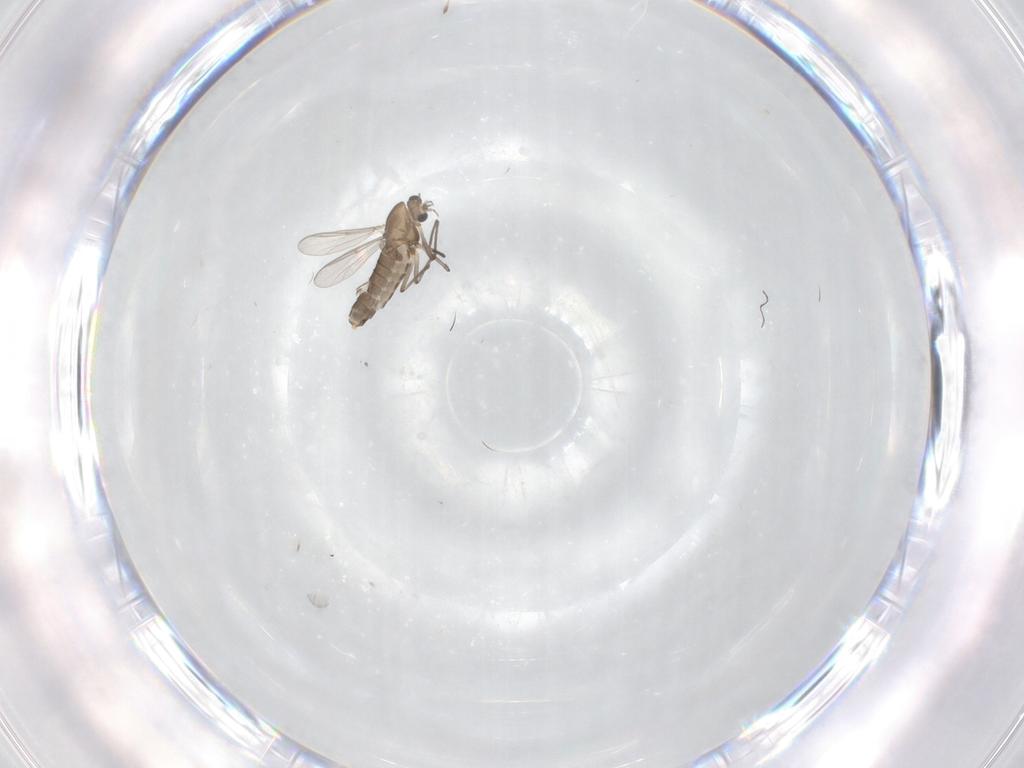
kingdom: Animalia
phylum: Arthropoda
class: Insecta
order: Diptera
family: Chironomidae
